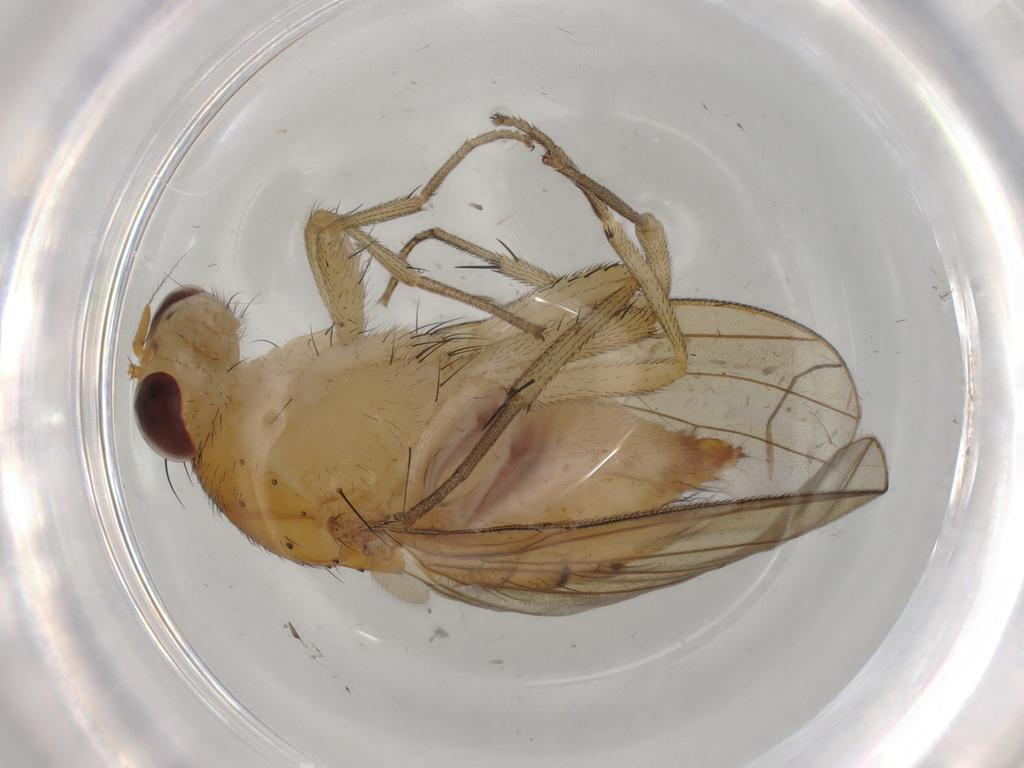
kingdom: Animalia
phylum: Arthropoda
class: Insecta
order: Diptera
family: Cecidomyiidae
